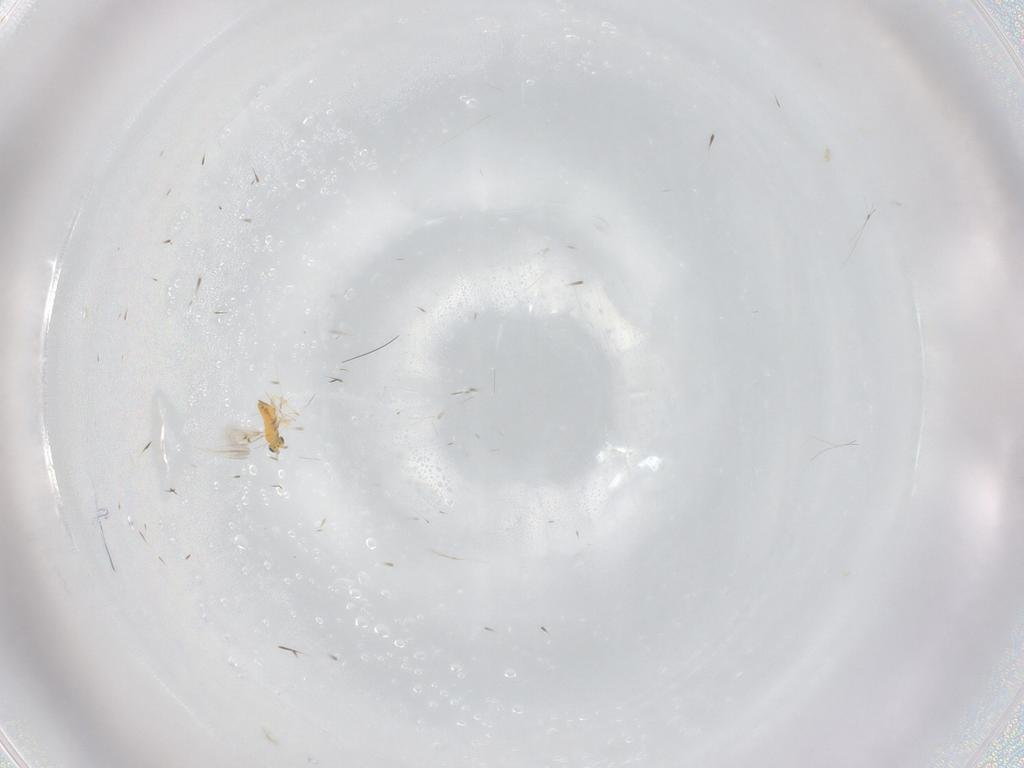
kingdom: Animalia
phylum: Arthropoda
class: Insecta
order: Hymenoptera
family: Trichogrammatidae
